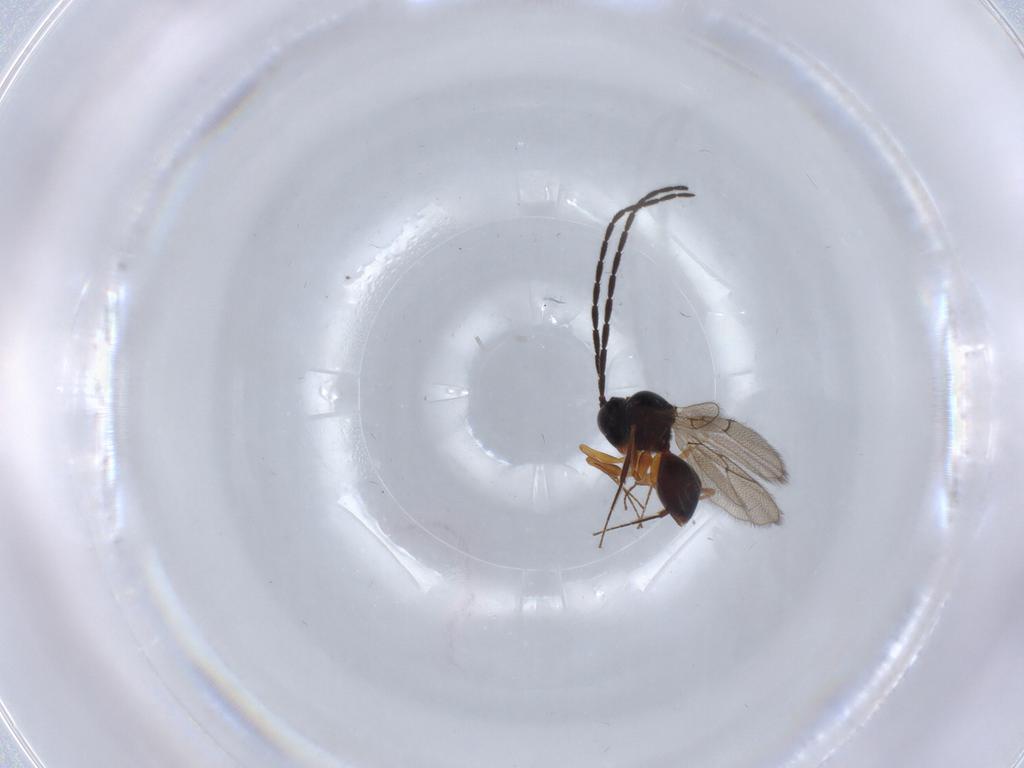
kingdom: Animalia
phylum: Arthropoda
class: Insecta
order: Hymenoptera
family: Figitidae
